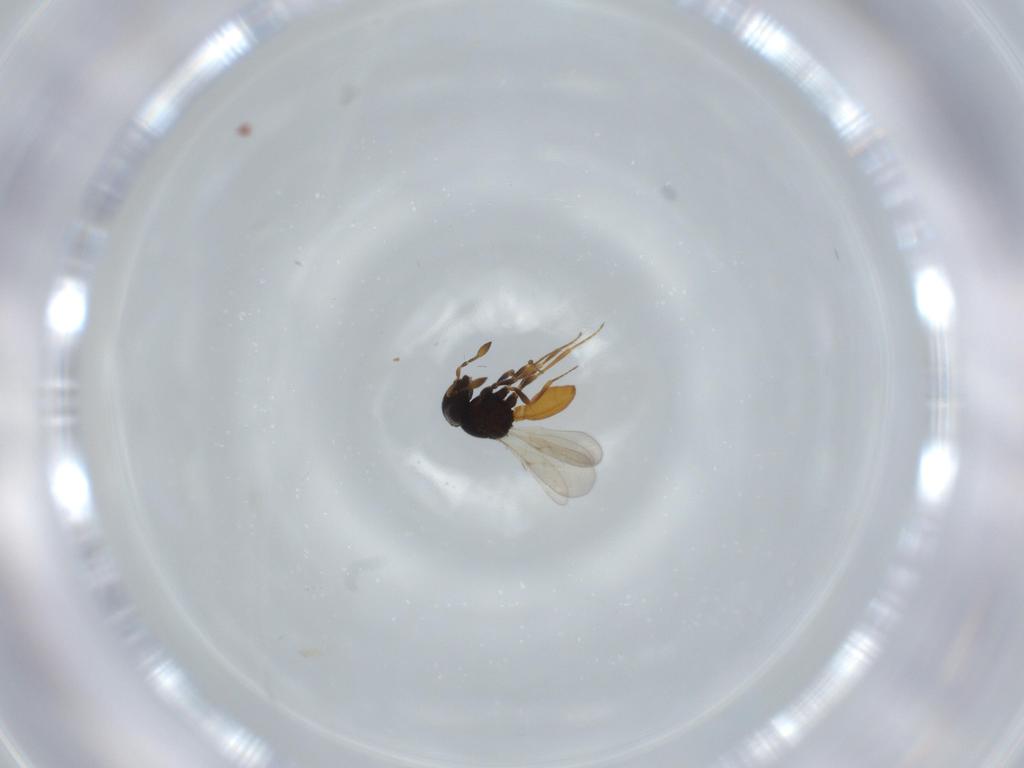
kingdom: Animalia
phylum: Arthropoda
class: Insecta
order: Hymenoptera
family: Scelionidae
